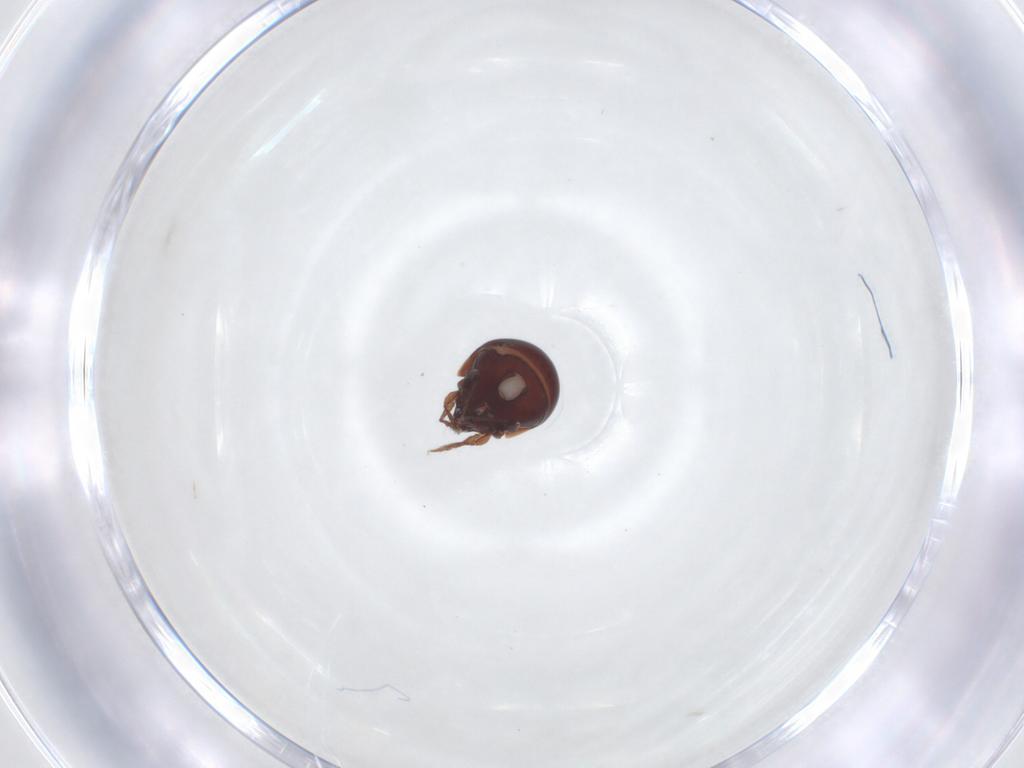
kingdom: Animalia
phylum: Arthropoda
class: Arachnida
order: Sarcoptiformes
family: Mochlozetidae
